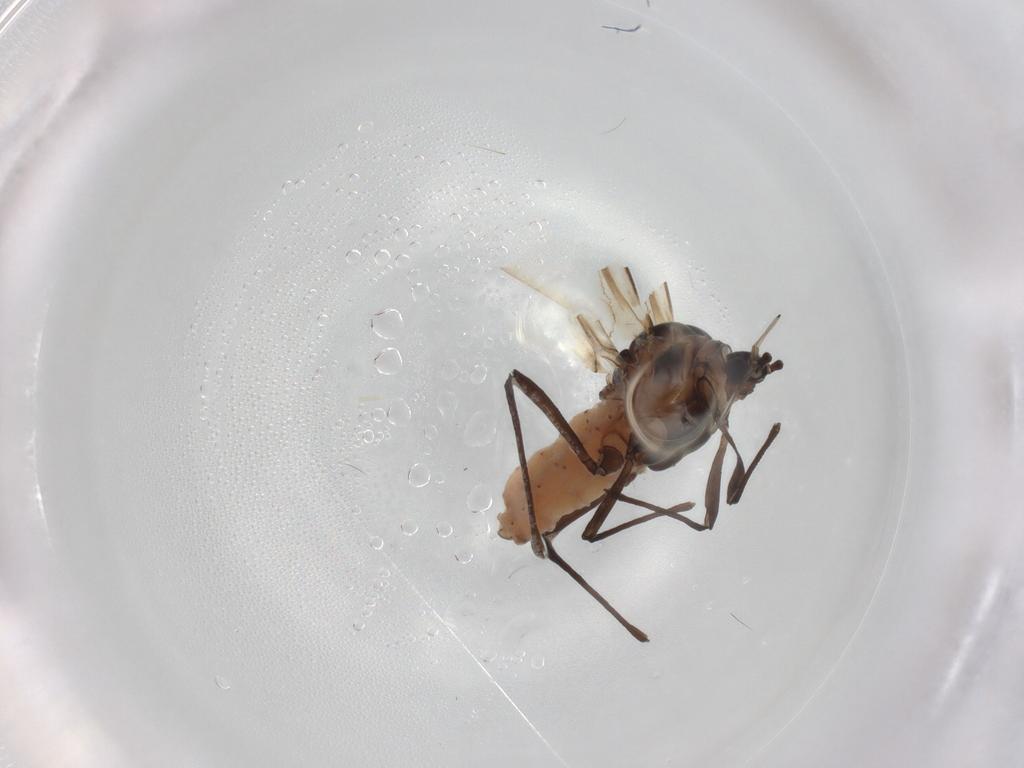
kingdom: Animalia
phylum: Arthropoda
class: Insecta
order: Hemiptera
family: Aphididae
